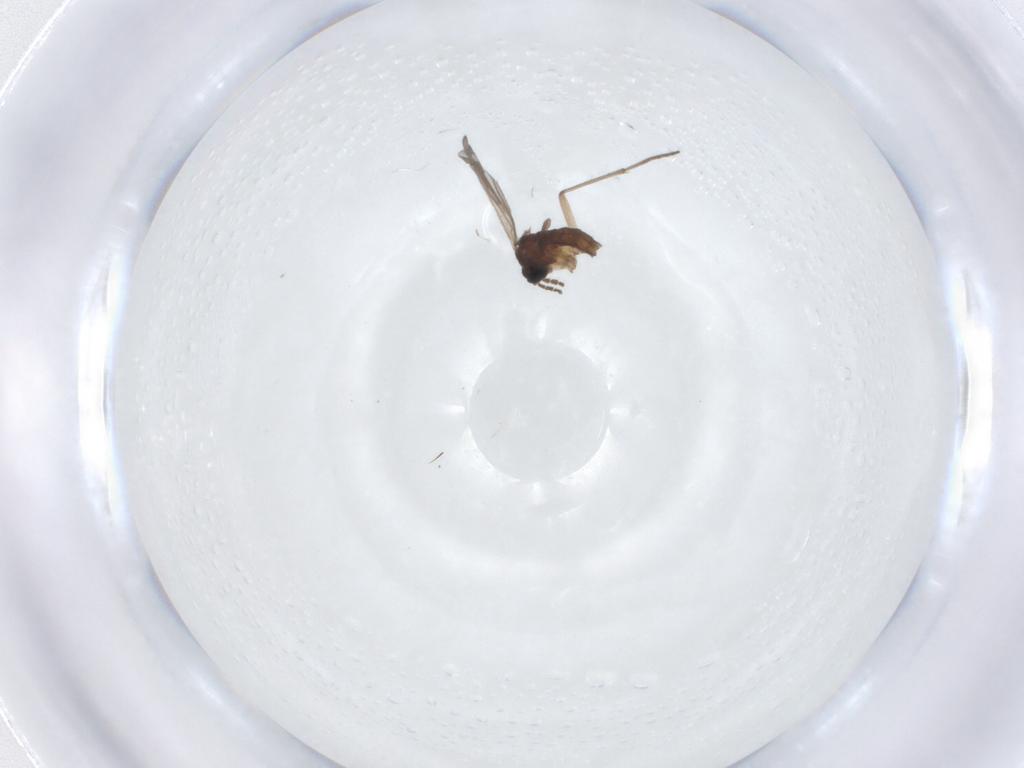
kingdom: Animalia
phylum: Arthropoda
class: Insecta
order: Diptera
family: Sciaridae
